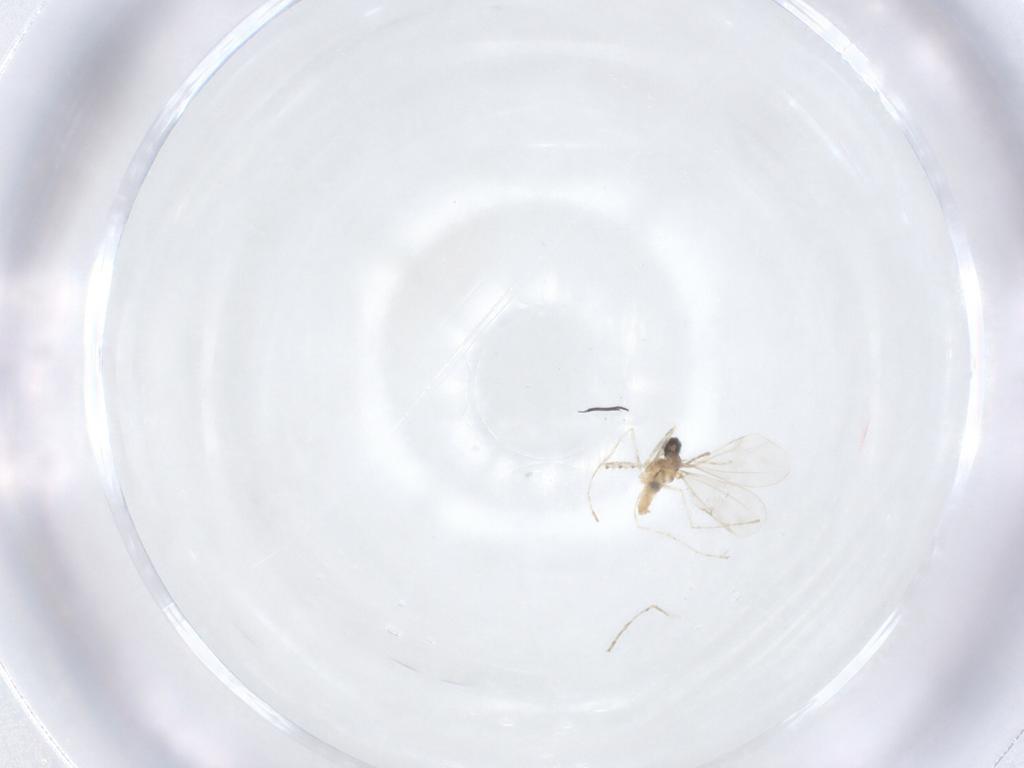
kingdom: Animalia
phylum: Arthropoda
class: Insecta
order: Diptera
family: Cecidomyiidae
